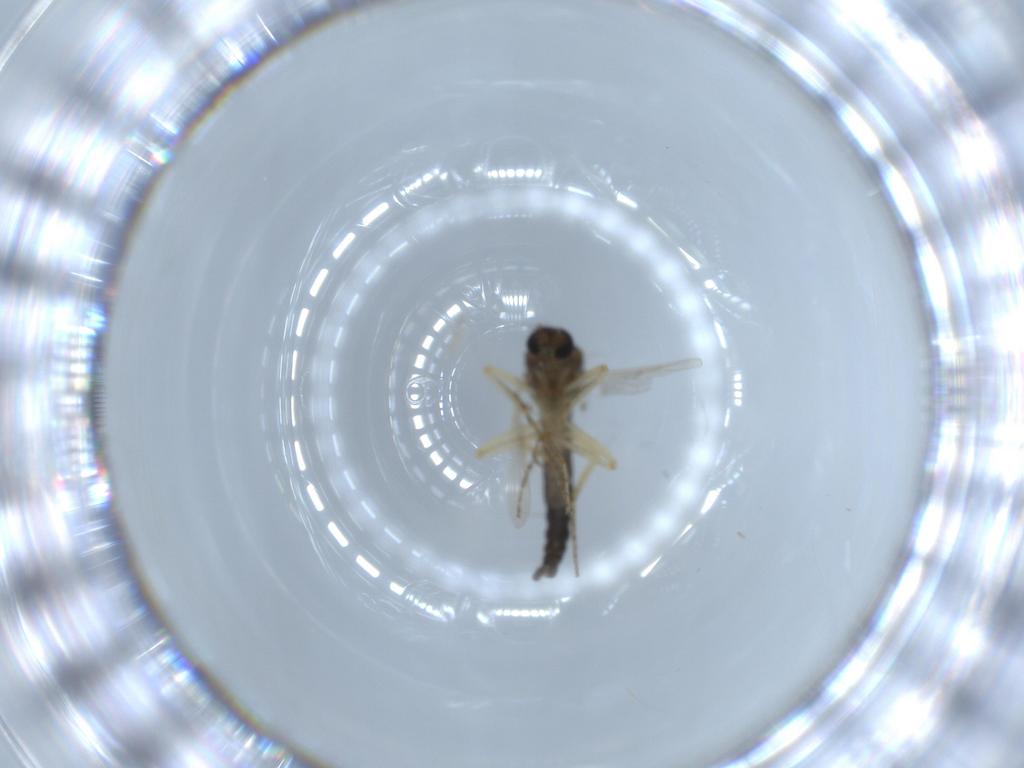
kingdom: Animalia
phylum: Arthropoda
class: Insecta
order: Diptera
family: Ceratopogonidae
